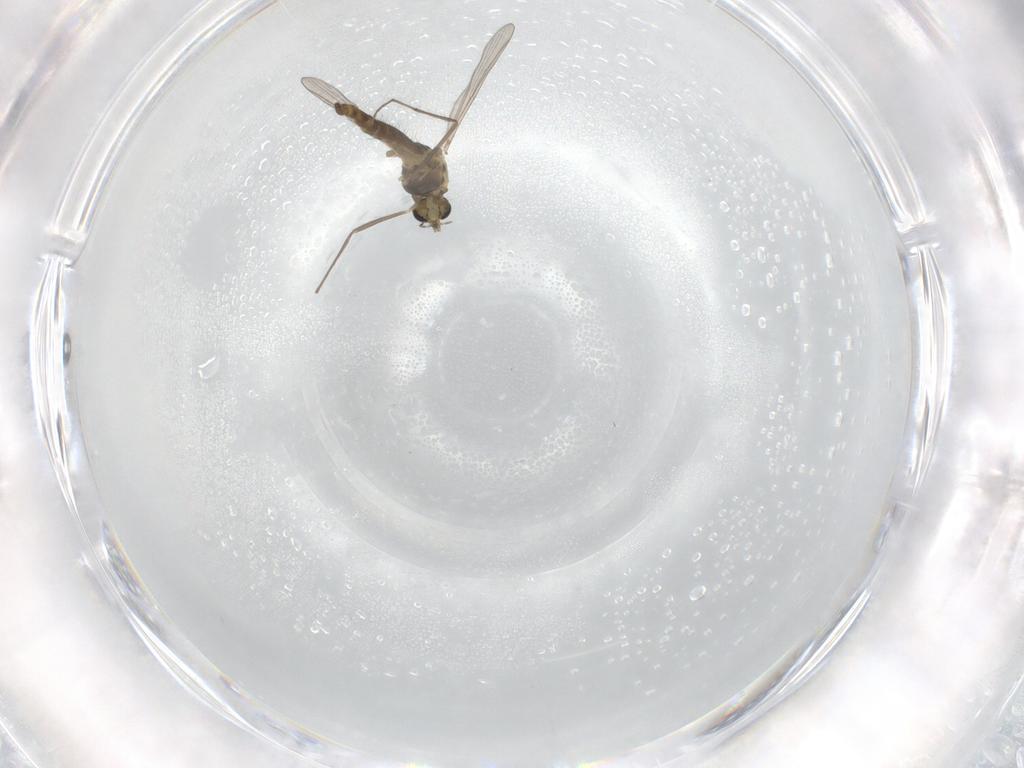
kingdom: Animalia
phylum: Arthropoda
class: Insecta
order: Diptera
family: Chironomidae
